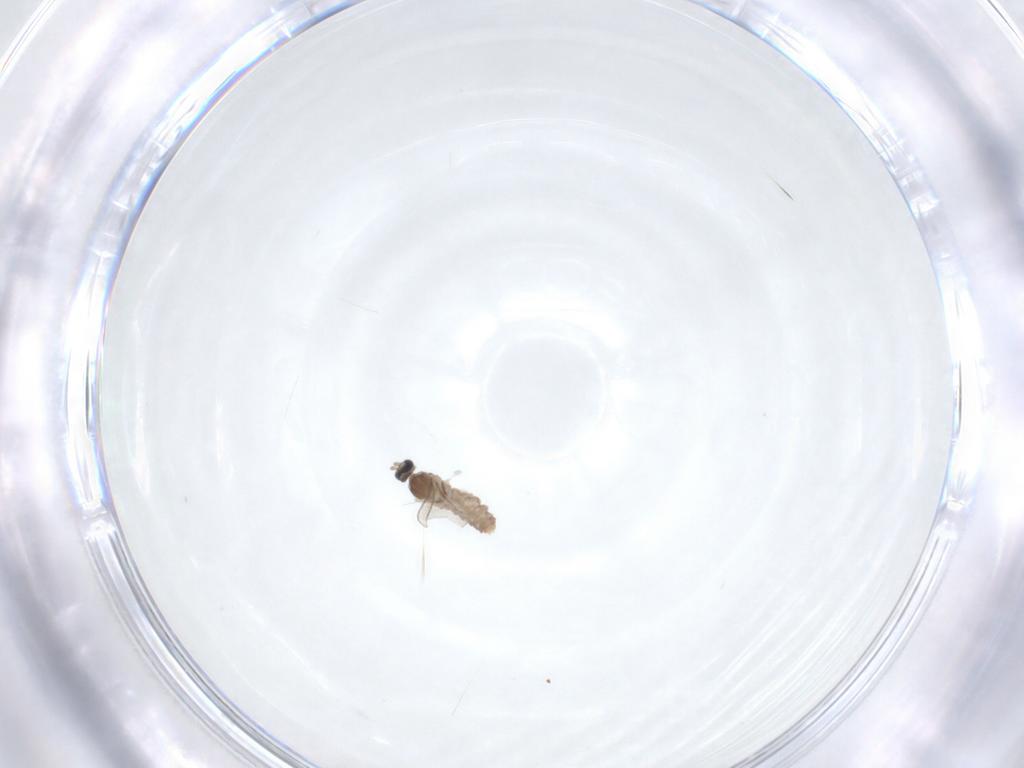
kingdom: Animalia
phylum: Arthropoda
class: Insecta
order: Diptera
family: Cecidomyiidae
